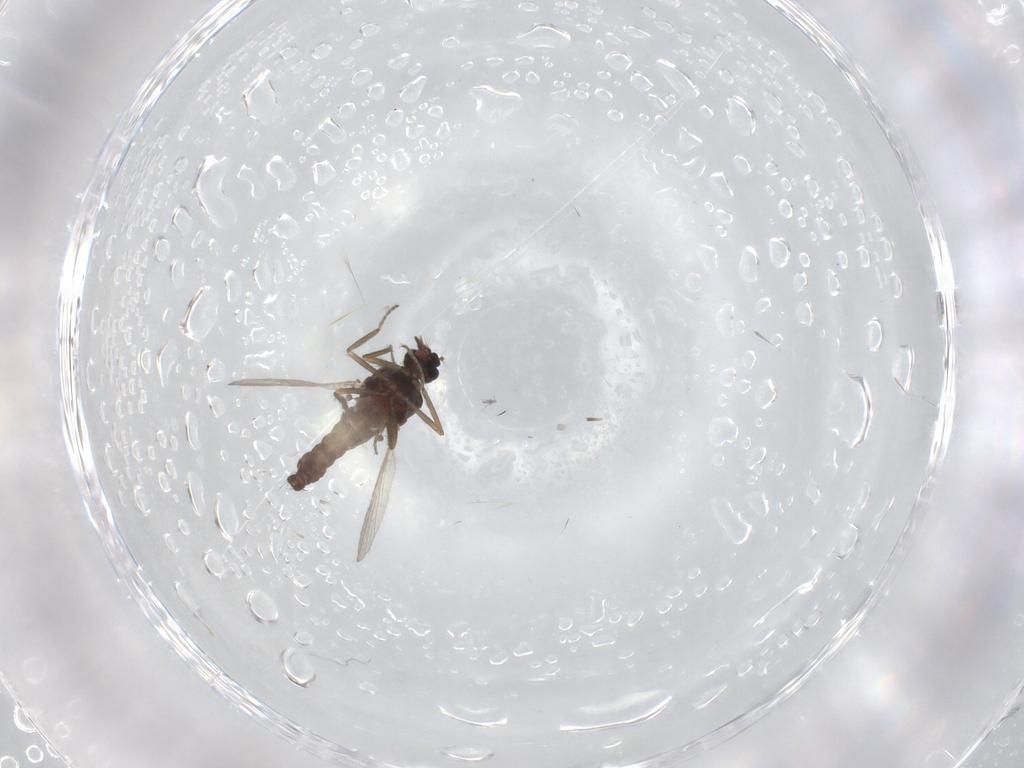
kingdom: Animalia
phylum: Arthropoda
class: Insecta
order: Diptera
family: Ceratopogonidae
